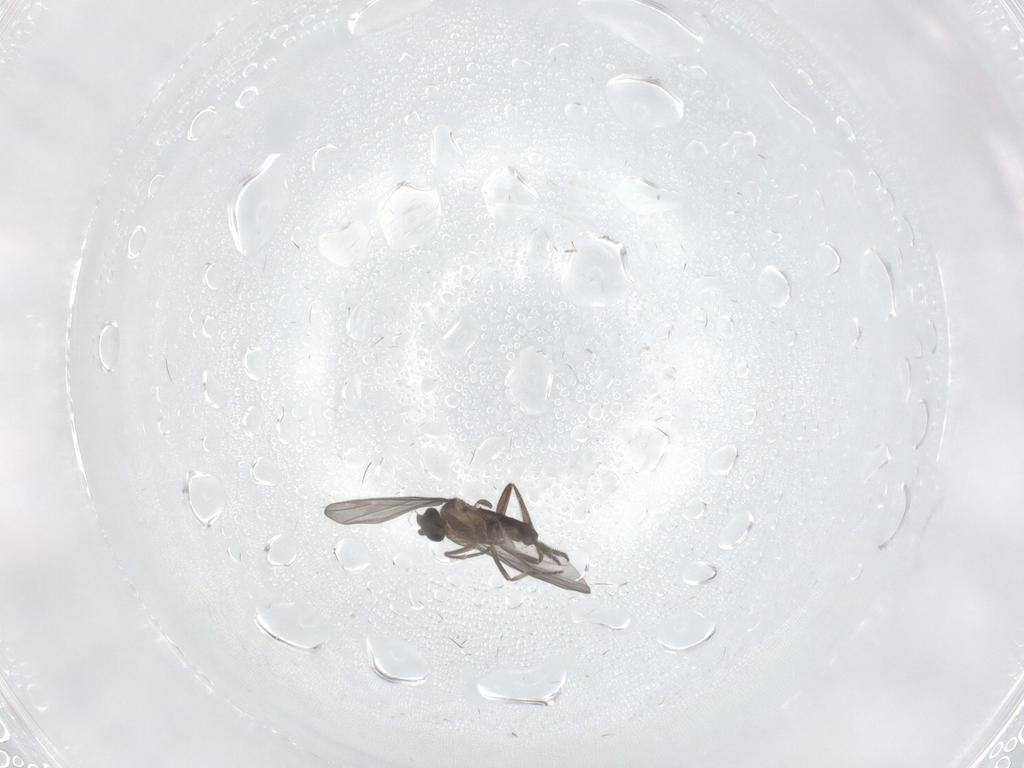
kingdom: Animalia
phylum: Arthropoda
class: Insecta
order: Diptera
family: Phoridae
